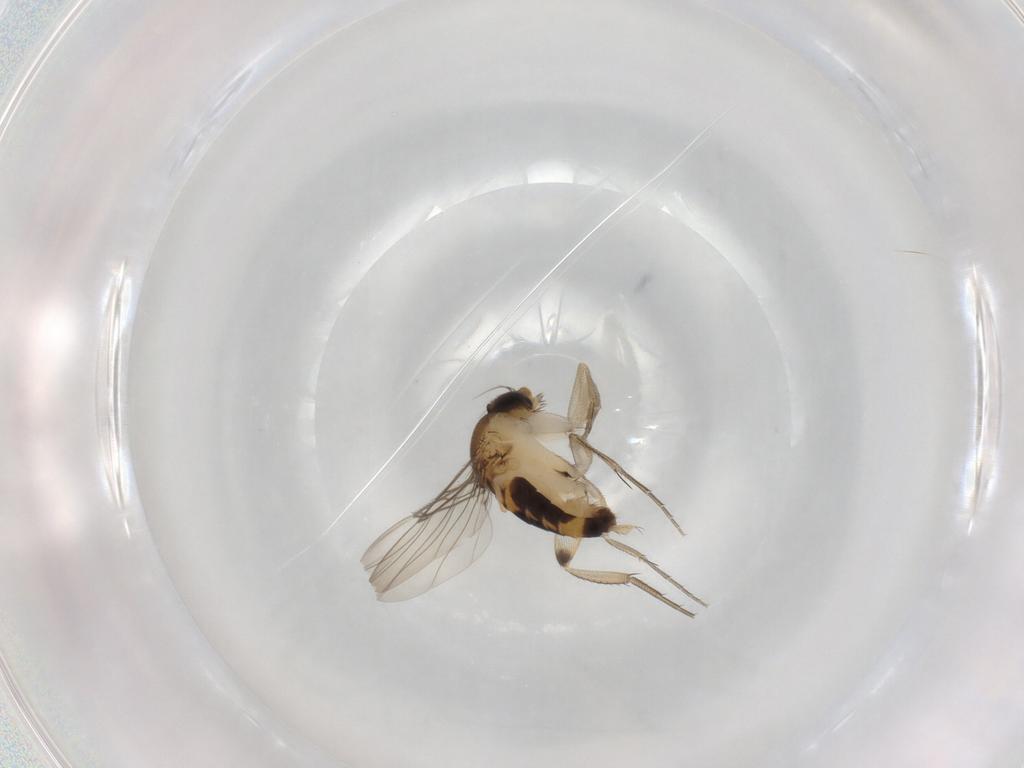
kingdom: Animalia
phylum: Arthropoda
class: Insecta
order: Diptera
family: Phoridae
